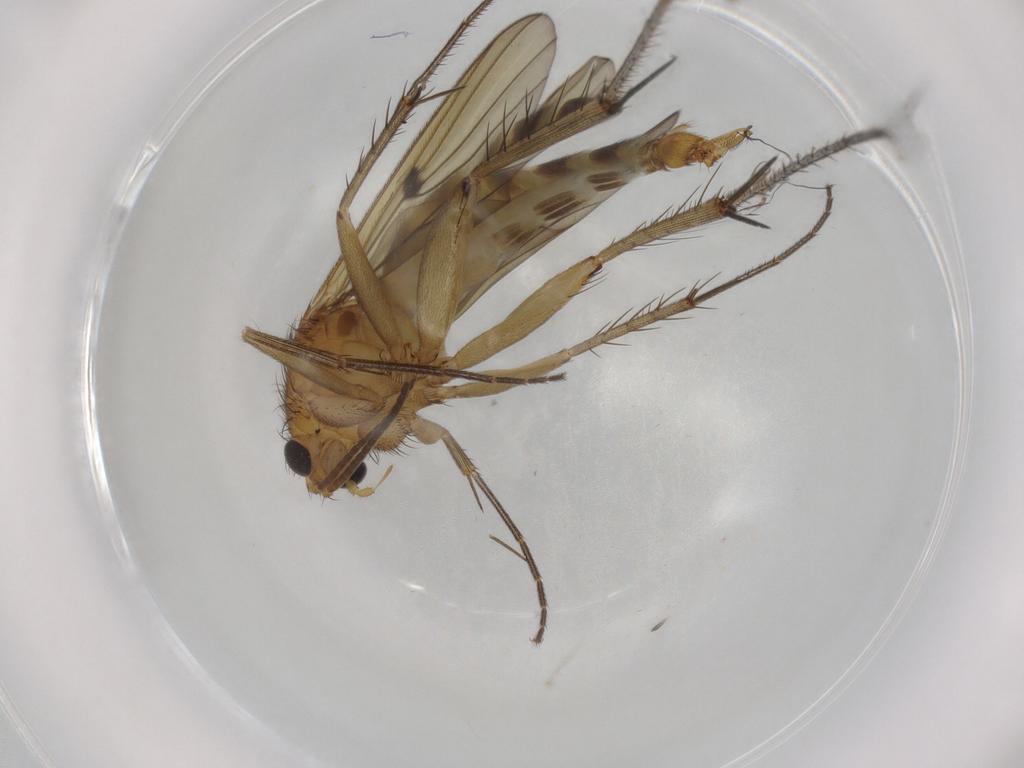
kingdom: Animalia
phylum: Arthropoda
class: Insecta
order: Diptera
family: Mycetophilidae
